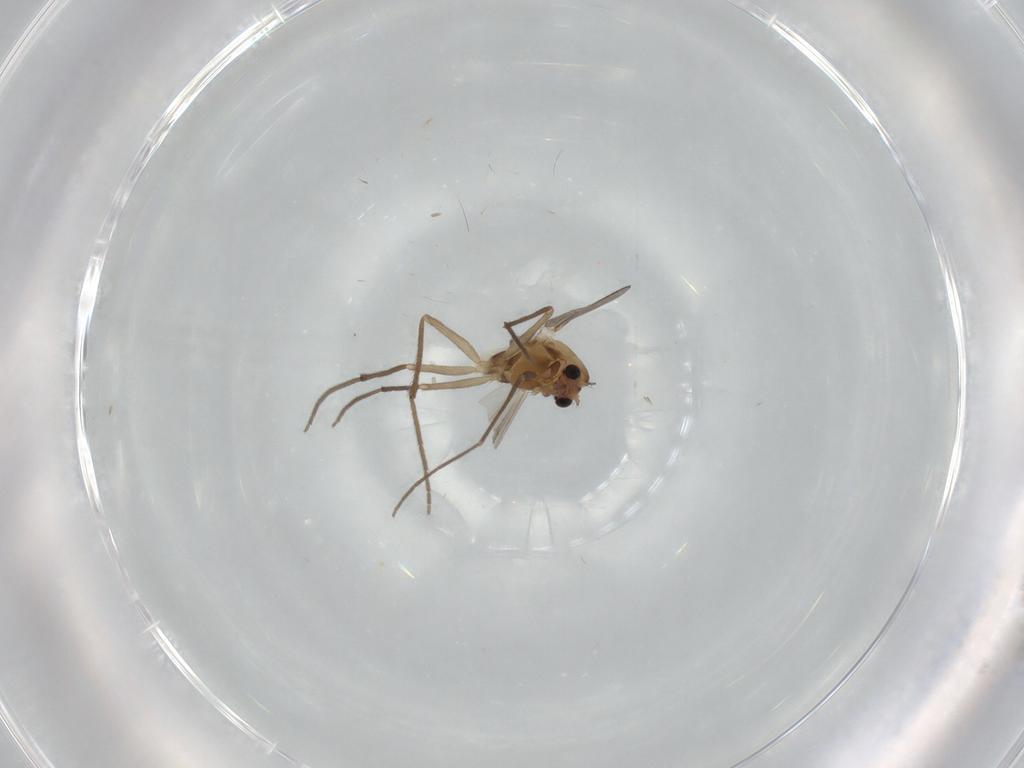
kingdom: Animalia
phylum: Arthropoda
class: Insecta
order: Diptera
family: Chironomidae
